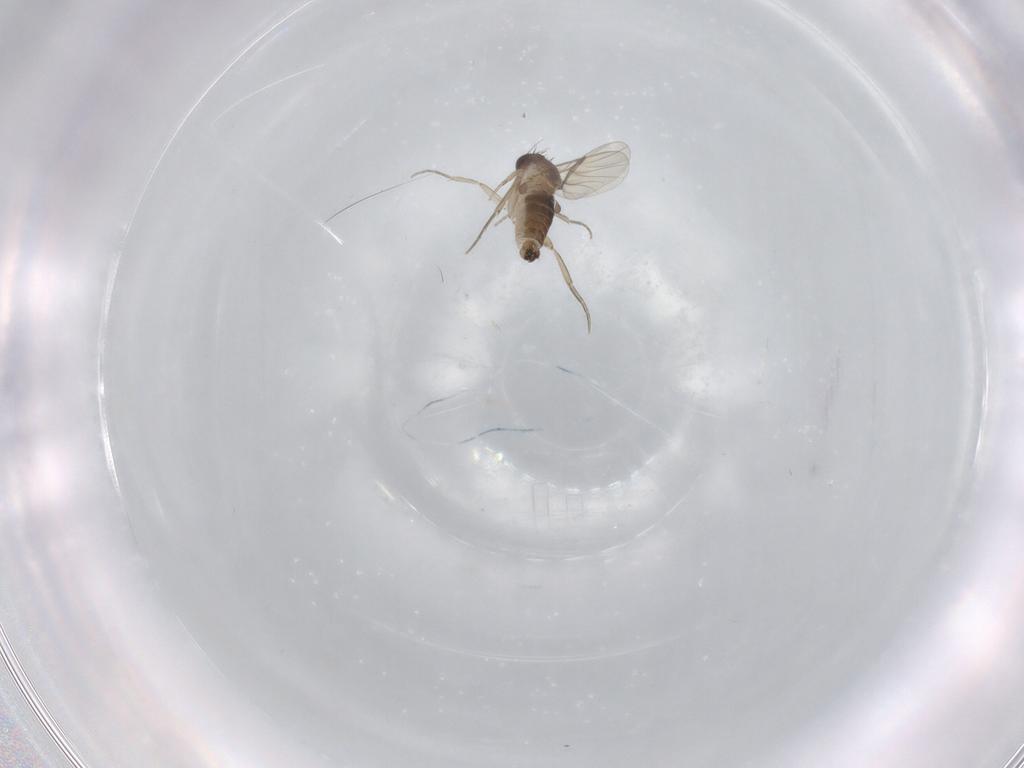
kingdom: Animalia
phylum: Arthropoda
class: Insecta
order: Diptera
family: Phoridae
